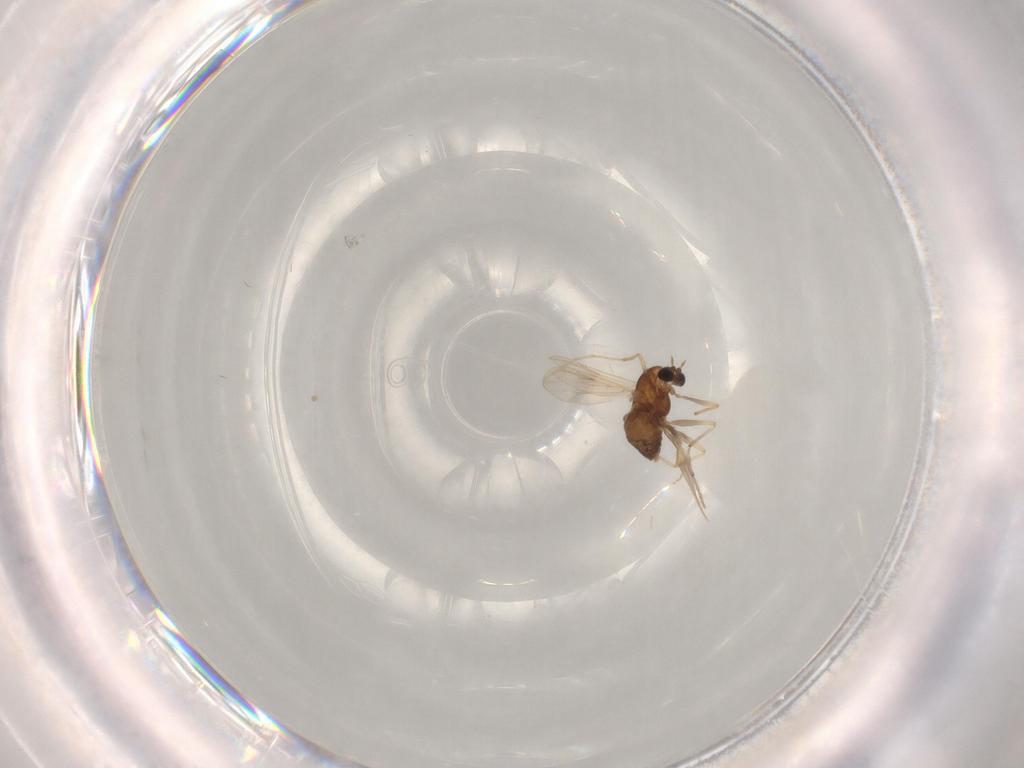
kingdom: Animalia
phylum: Arthropoda
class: Insecta
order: Diptera
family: Chironomidae
